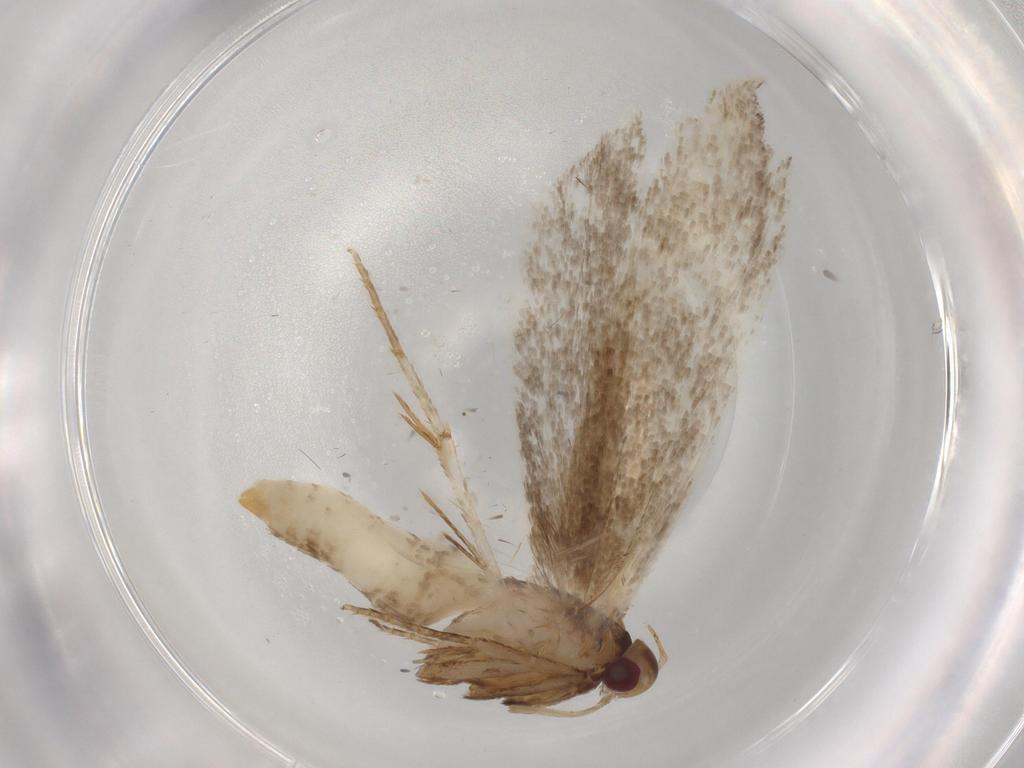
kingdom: Animalia
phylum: Arthropoda
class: Insecta
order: Lepidoptera
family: Gelechiidae
